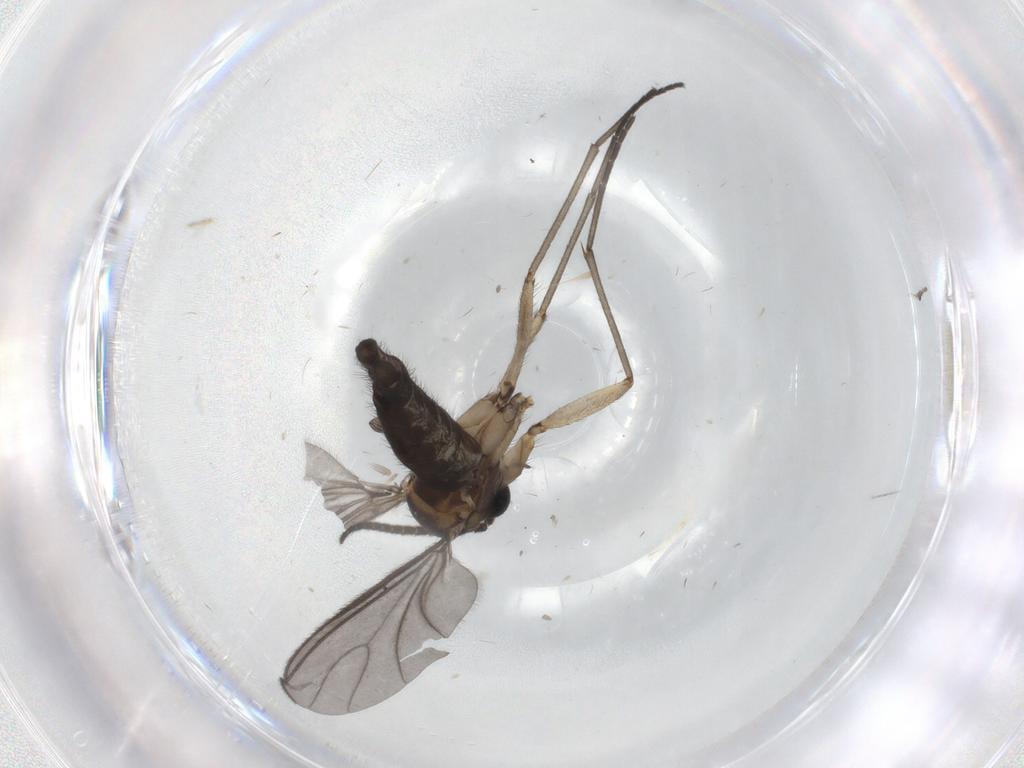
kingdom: Animalia
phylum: Arthropoda
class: Insecta
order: Diptera
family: Sciaridae
